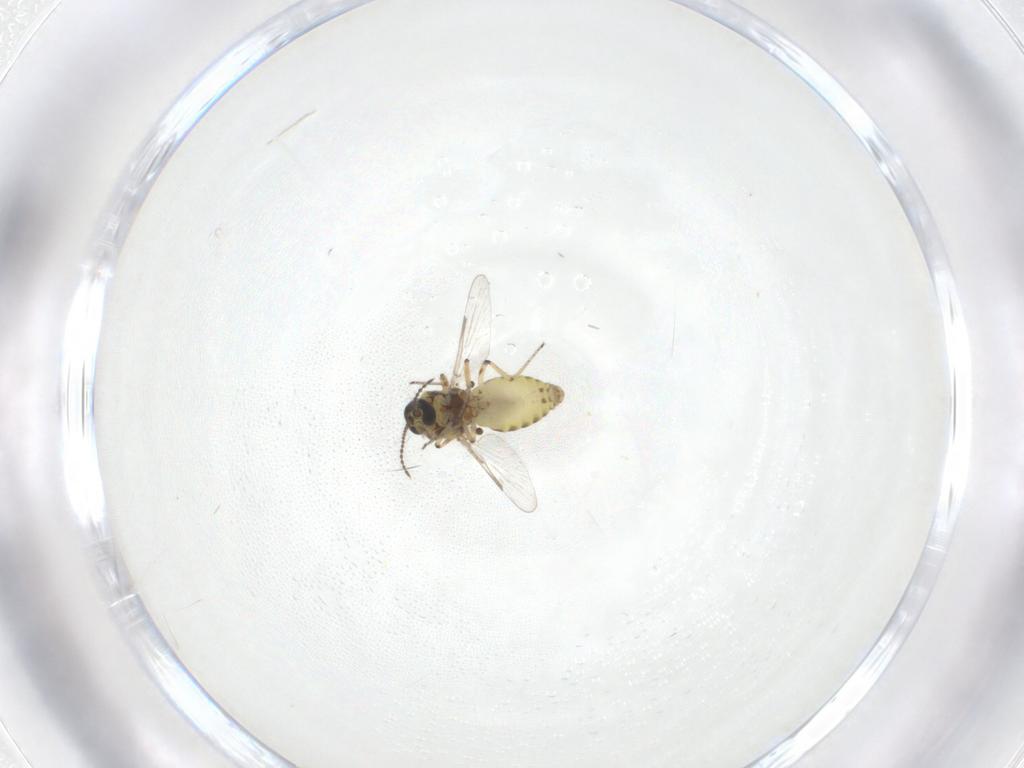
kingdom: Animalia
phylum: Arthropoda
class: Insecta
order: Diptera
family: Ceratopogonidae
